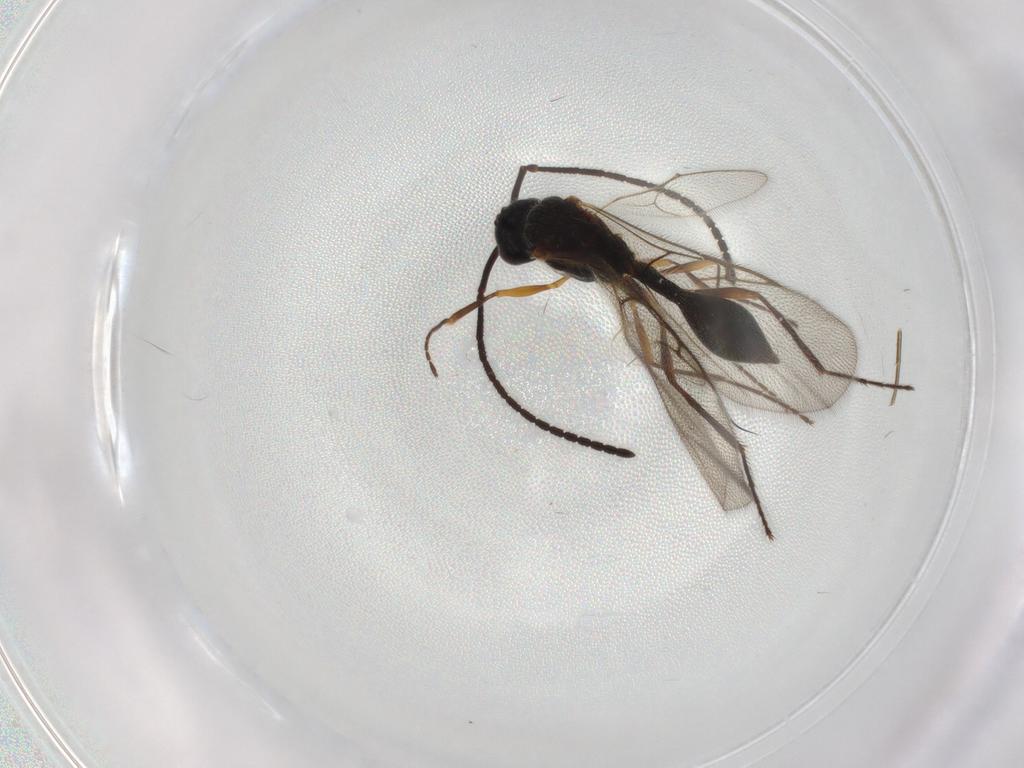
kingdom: Animalia
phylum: Arthropoda
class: Insecta
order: Hymenoptera
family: Diapriidae
